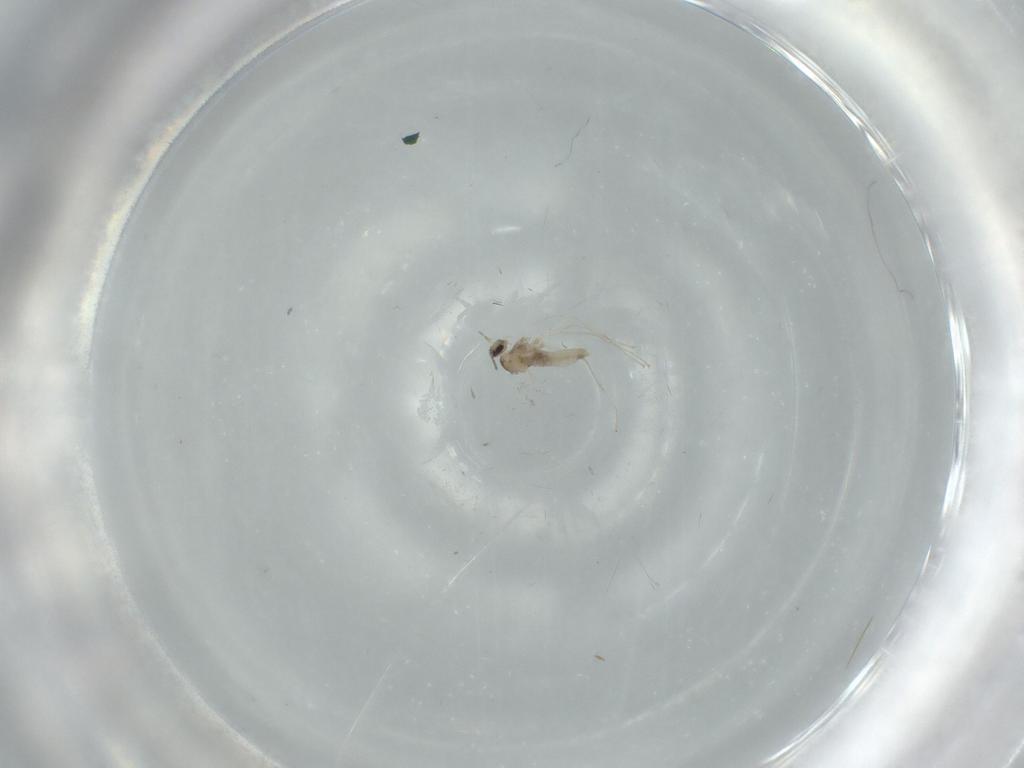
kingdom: Animalia
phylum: Arthropoda
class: Insecta
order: Diptera
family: Cecidomyiidae
